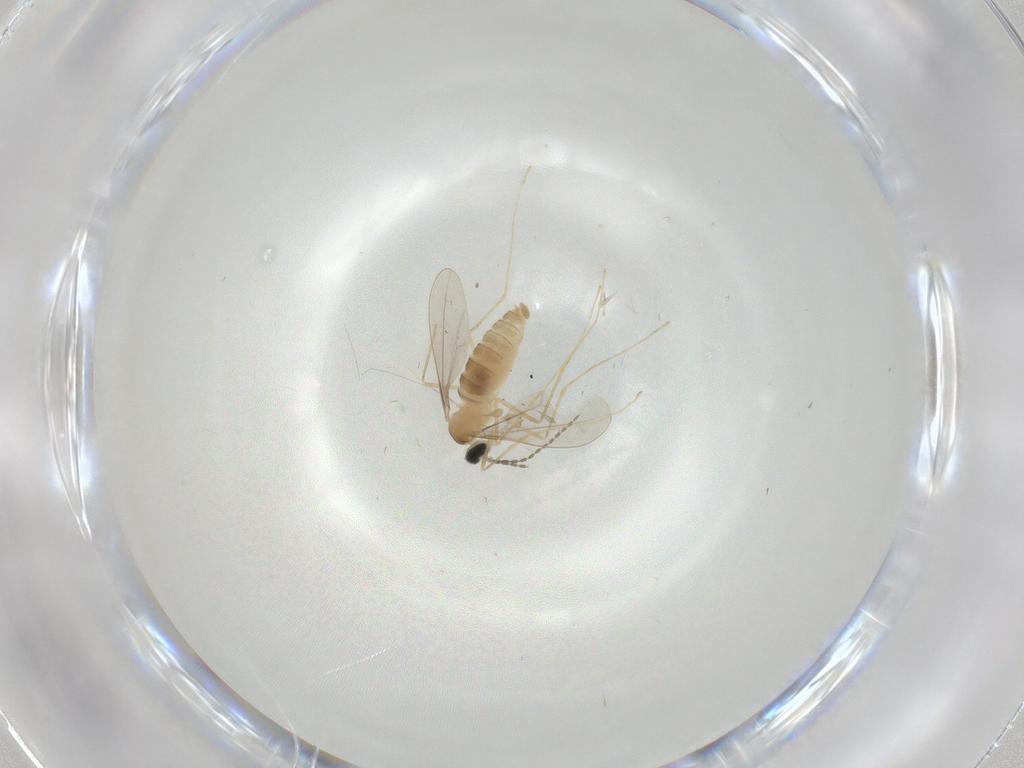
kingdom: Animalia
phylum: Arthropoda
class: Insecta
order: Diptera
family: Cecidomyiidae
